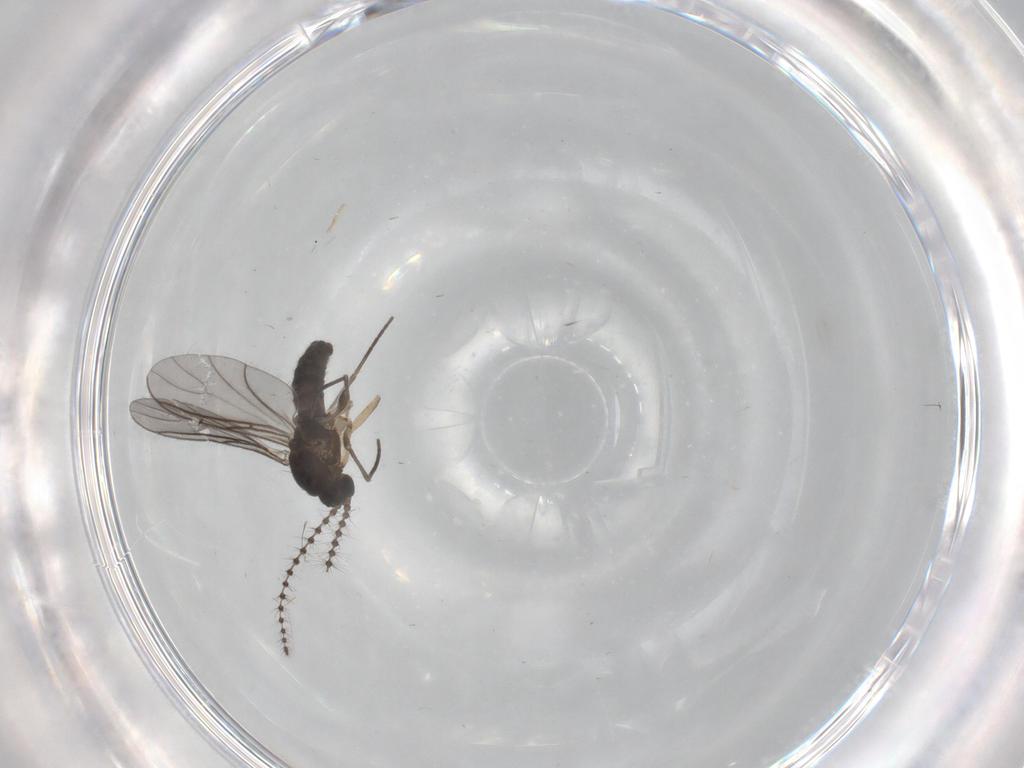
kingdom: Animalia
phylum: Arthropoda
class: Insecta
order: Diptera
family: Sciaridae
